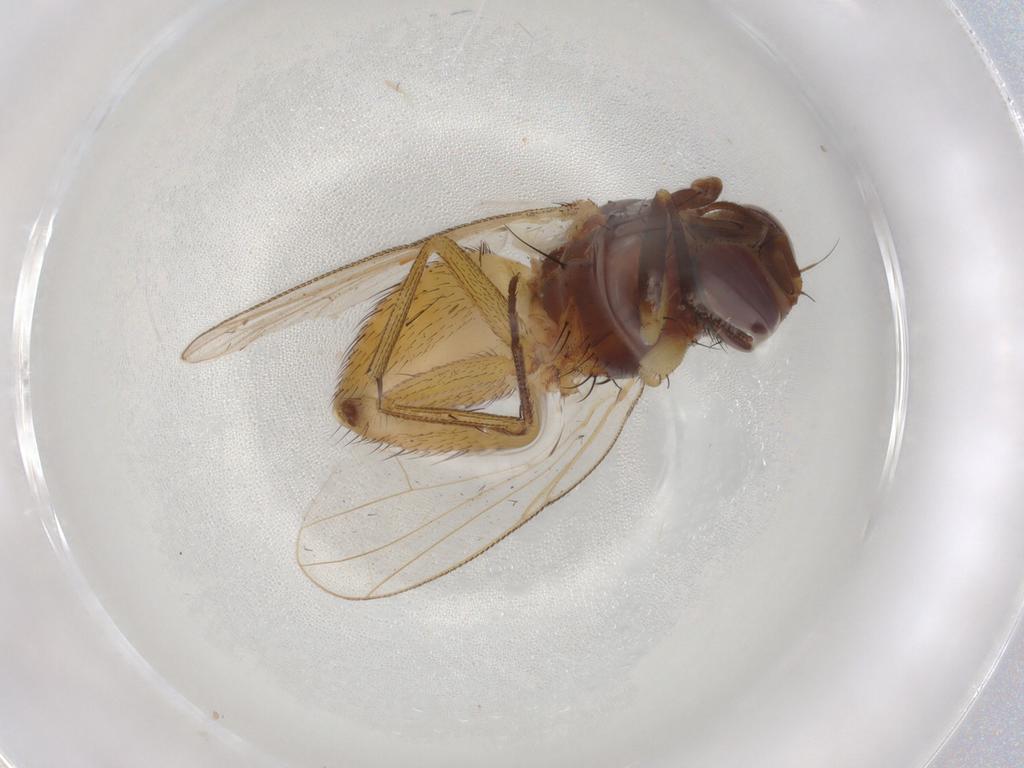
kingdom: Animalia
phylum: Arthropoda
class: Insecta
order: Diptera
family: Muscidae
